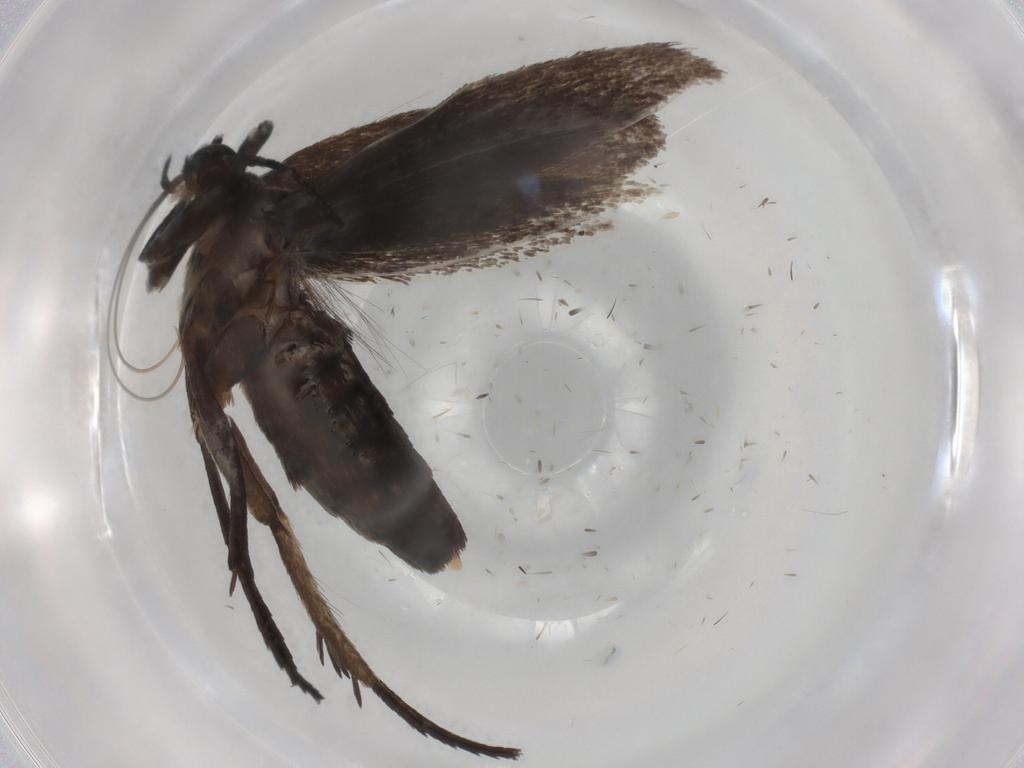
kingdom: Animalia
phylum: Arthropoda
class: Insecta
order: Lepidoptera
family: Scythrididae
